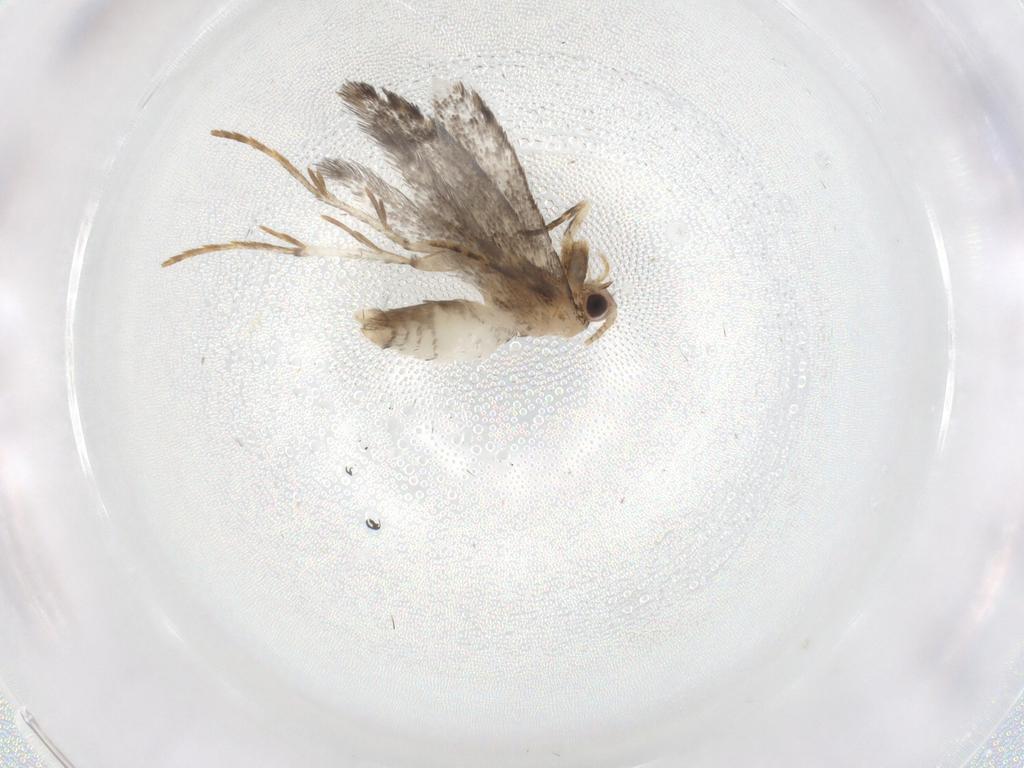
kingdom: Animalia
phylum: Arthropoda
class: Insecta
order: Lepidoptera
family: Tineidae
